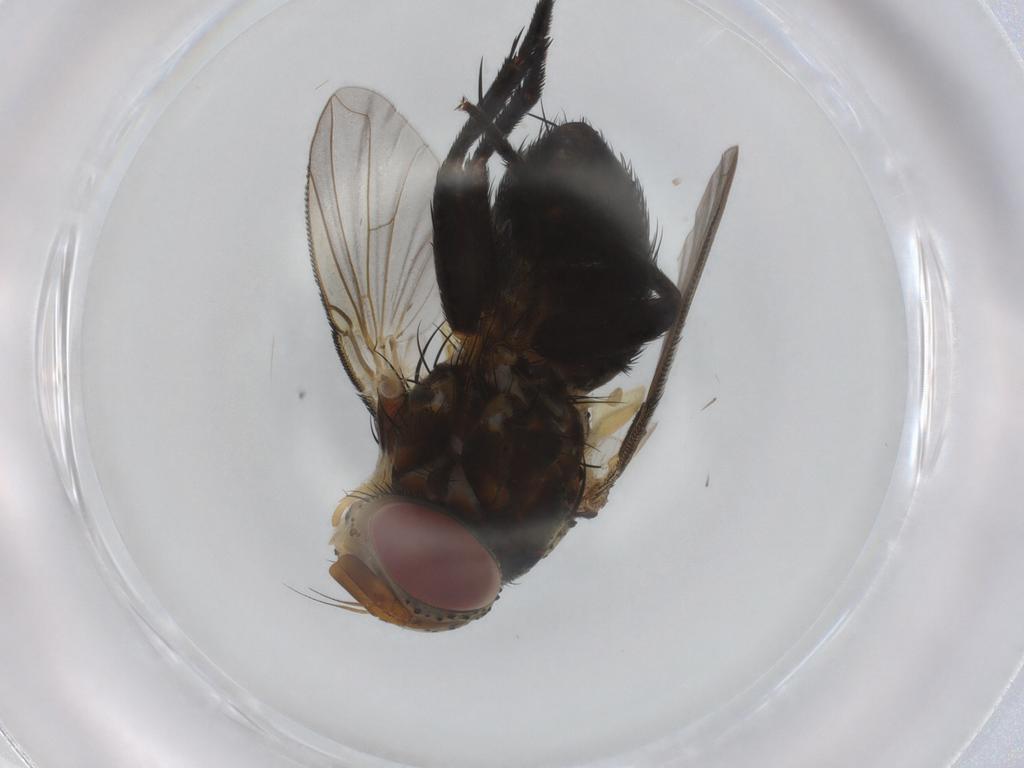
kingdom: Animalia
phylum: Arthropoda
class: Insecta
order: Diptera
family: Tachinidae
